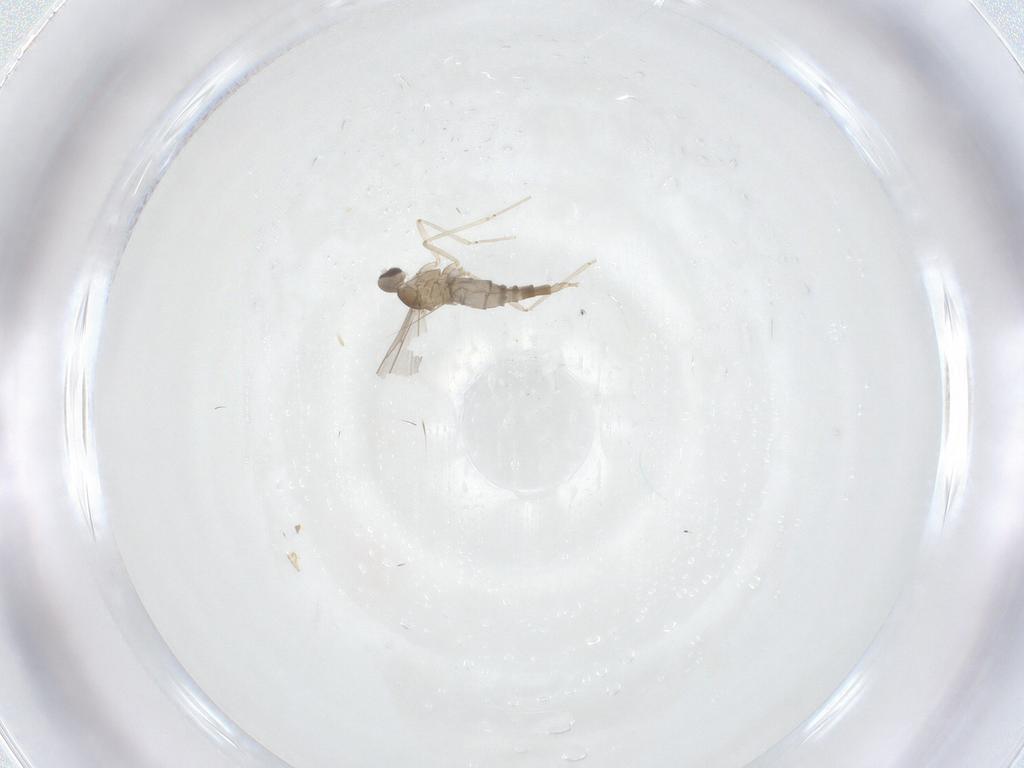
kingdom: Animalia
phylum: Arthropoda
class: Insecta
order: Diptera
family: Cecidomyiidae
